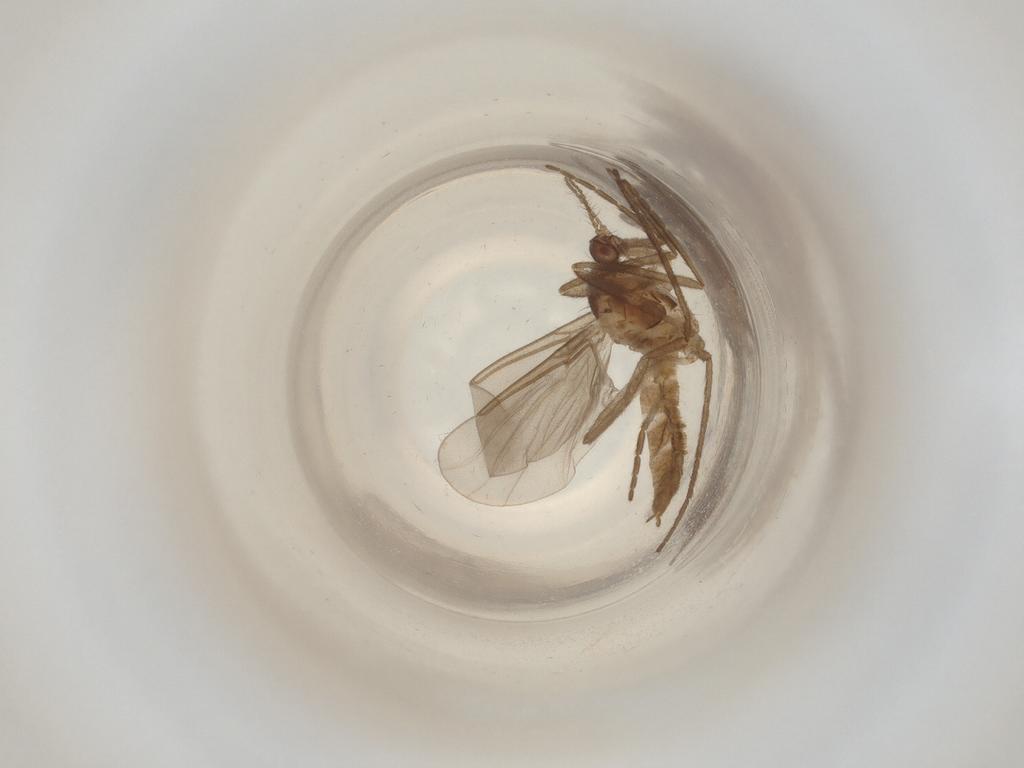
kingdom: Animalia
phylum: Arthropoda
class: Insecta
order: Diptera
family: Cecidomyiidae
